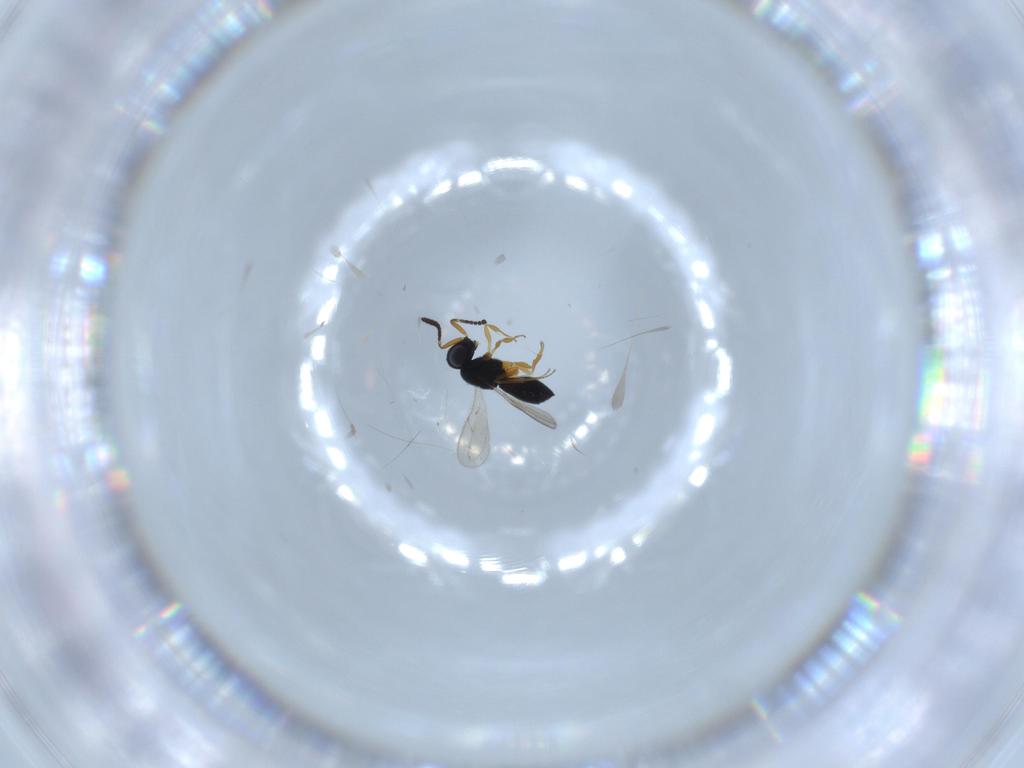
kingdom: Animalia
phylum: Arthropoda
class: Insecta
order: Hymenoptera
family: Scelionidae
